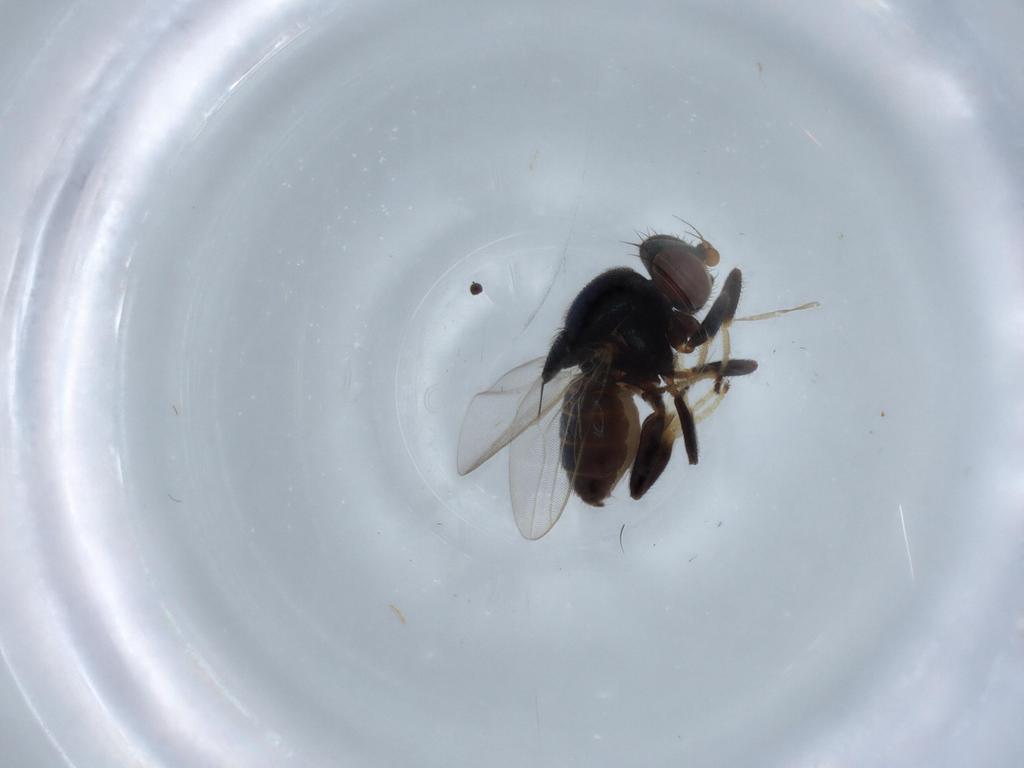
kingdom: Animalia
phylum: Arthropoda
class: Insecta
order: Diptera
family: Chloropidae
